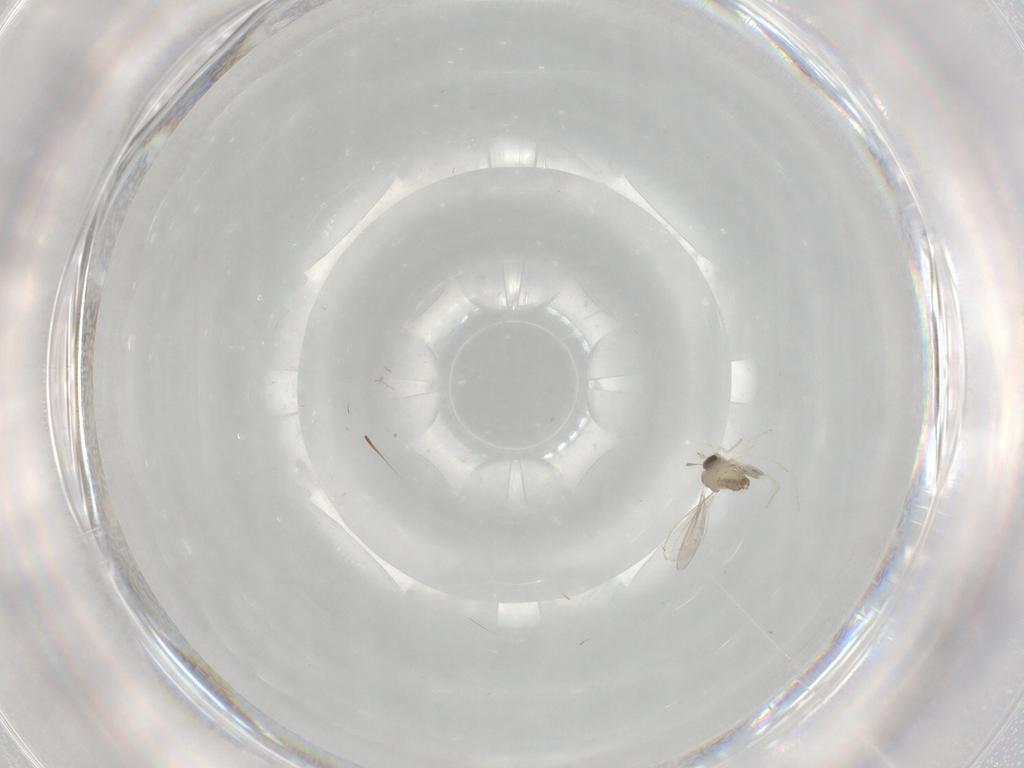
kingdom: Animalia
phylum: Arthropoda
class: Insecta
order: Diptera
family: Cecidomyiidae
